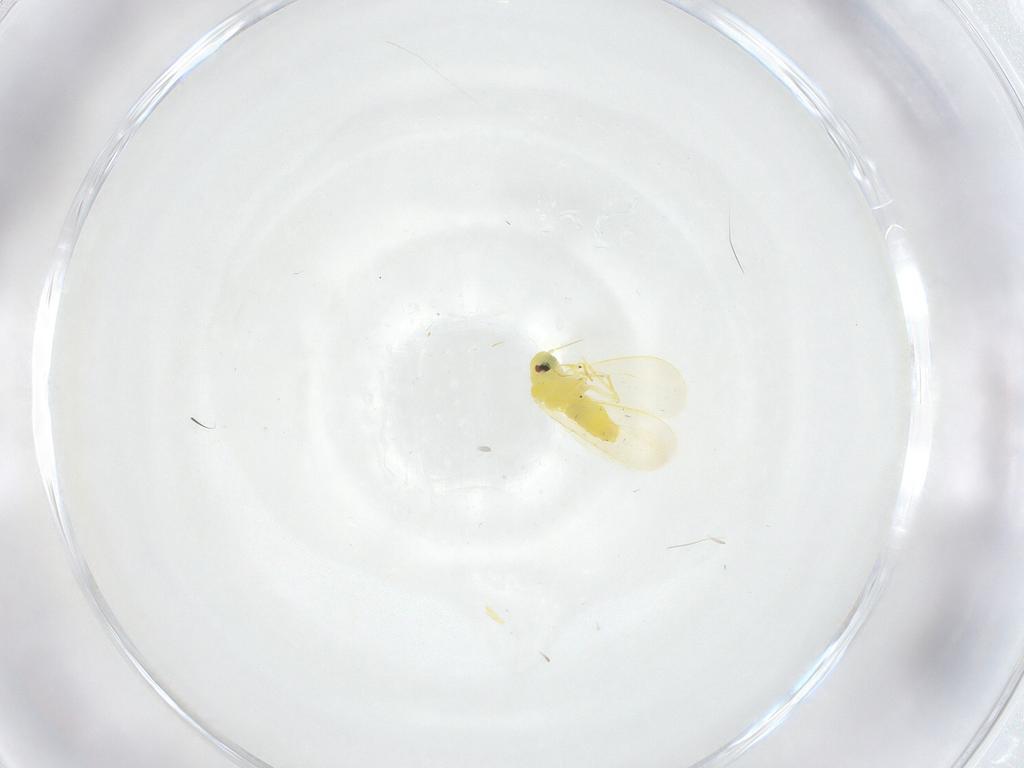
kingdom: Animalia
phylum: Arthropoda
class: Insecta
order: Hemiptera
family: Aleyrodidae
